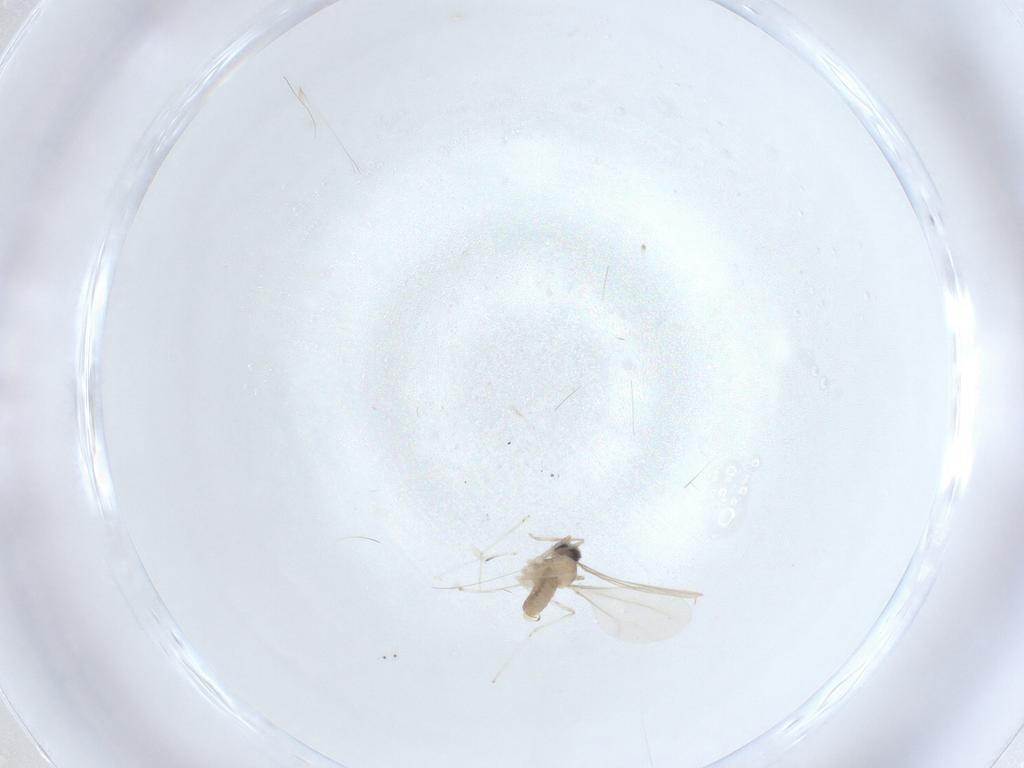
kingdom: Animalia
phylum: Arthropoda
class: Insecta
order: Diptera
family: Cecidomyiidae
